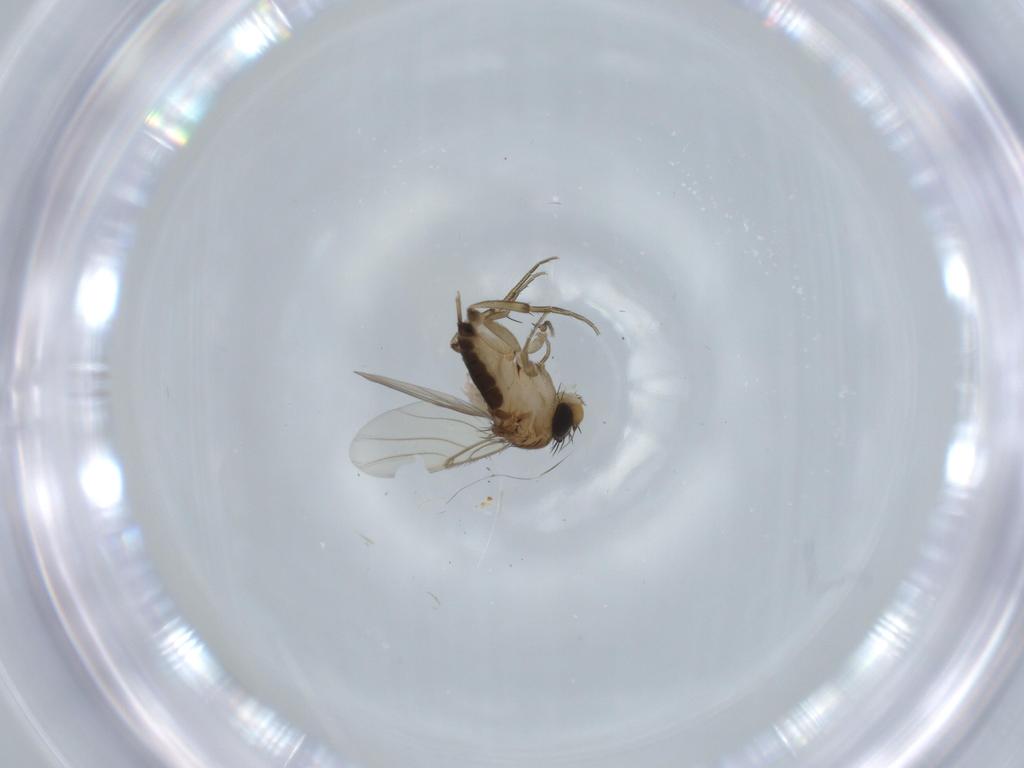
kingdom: Animalia
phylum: Arthropoda
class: Insecta
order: Diptera
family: Sciaridae
